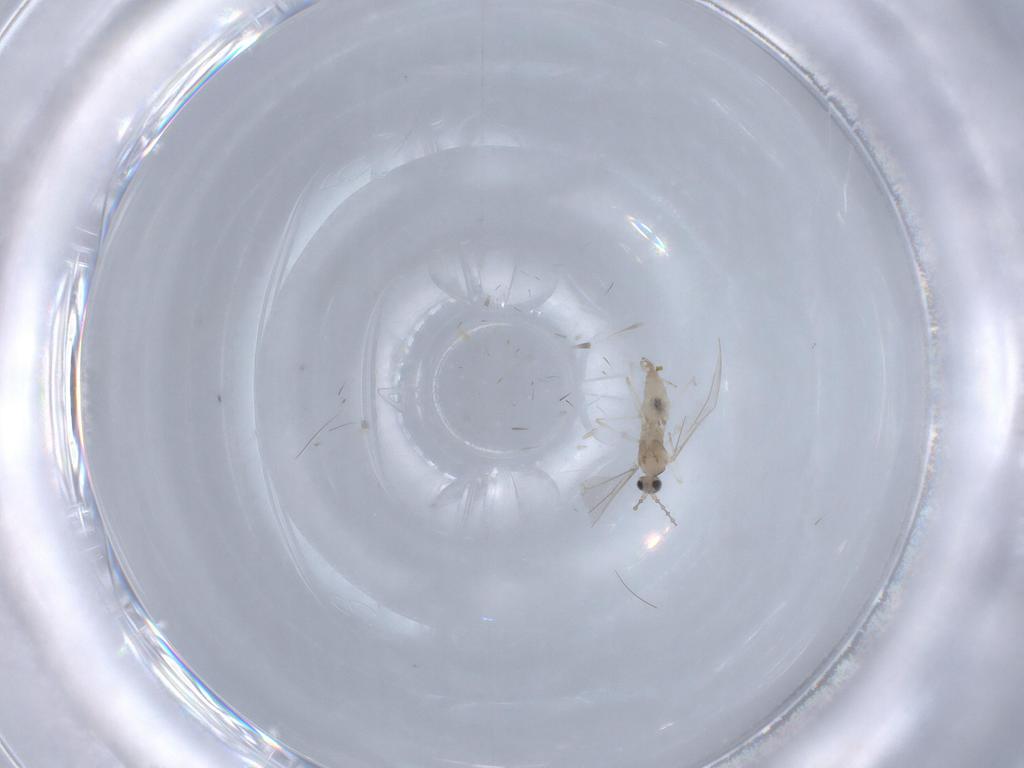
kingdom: Animalia
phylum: Arthropoda
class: Insecta
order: Diptera
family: Cecidomyiidae
